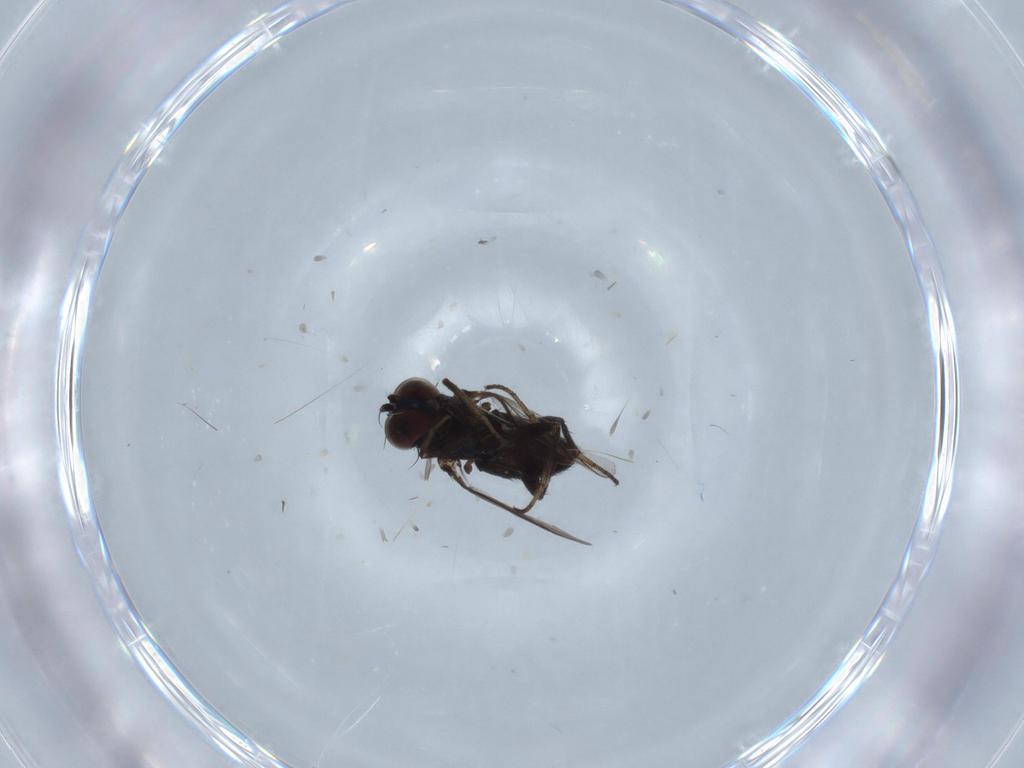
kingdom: Animalia
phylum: Arthropoda
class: Insecta
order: Diptera
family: Dolichopodidae
